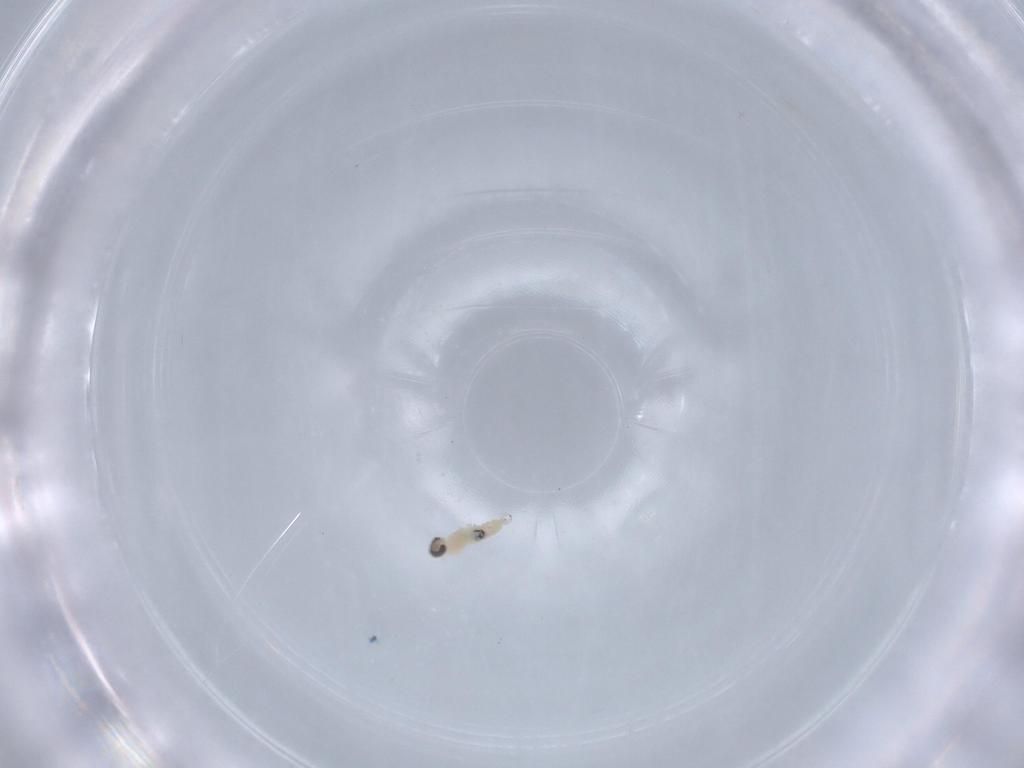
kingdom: Animalia
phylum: Arthropoda
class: Insecta
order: Diptera
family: Cecidomyiidae
